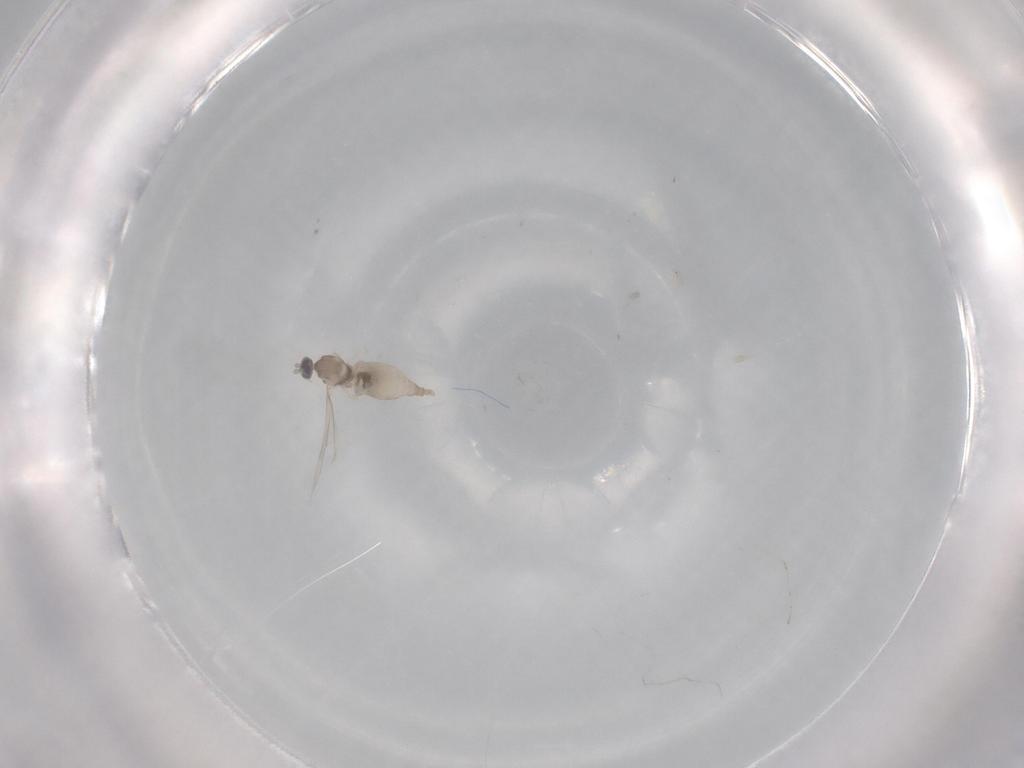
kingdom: Animalia
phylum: Arthropoda
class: Insecta
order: Diptera
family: Cecidomyiidae
